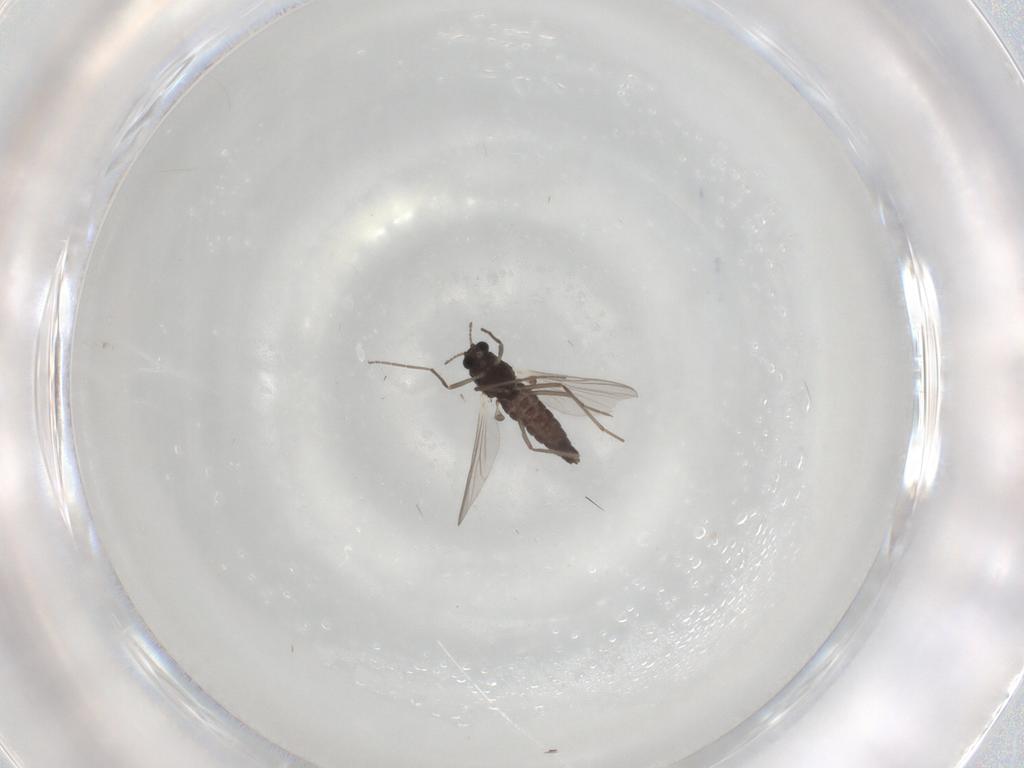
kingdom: Animalia
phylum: Arthropoda
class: Insecta
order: Diptera
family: Chironomidae
